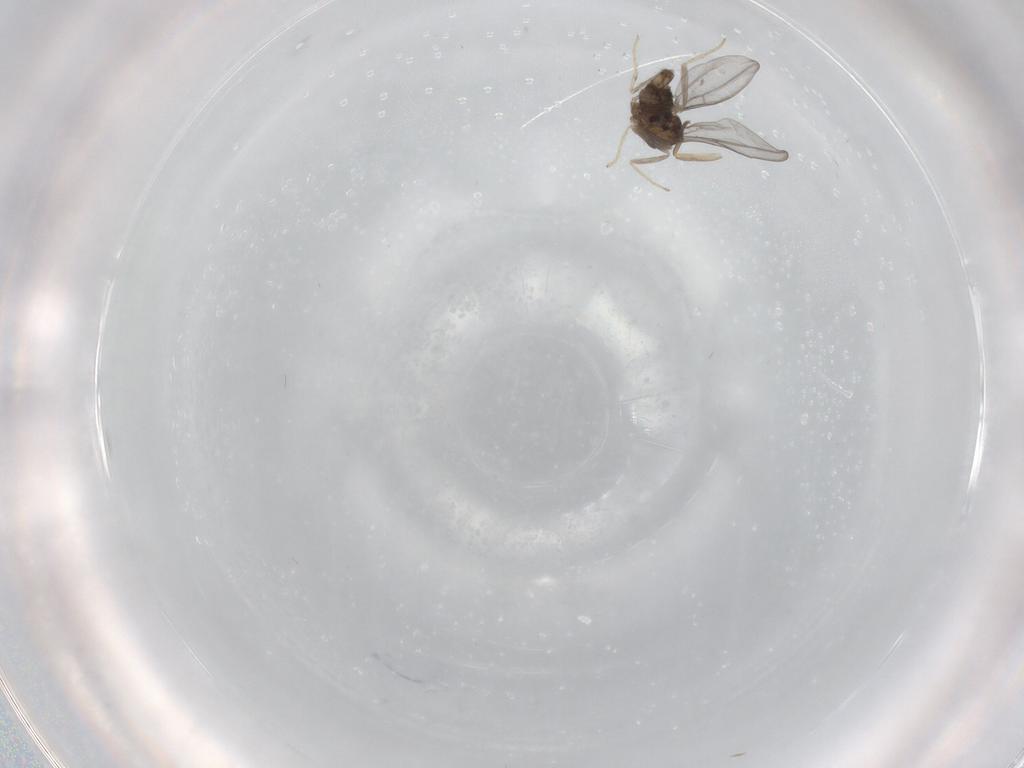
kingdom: Animalia
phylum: Arthropoda
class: Insecta
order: Diptera
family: Cecidomyiidae
